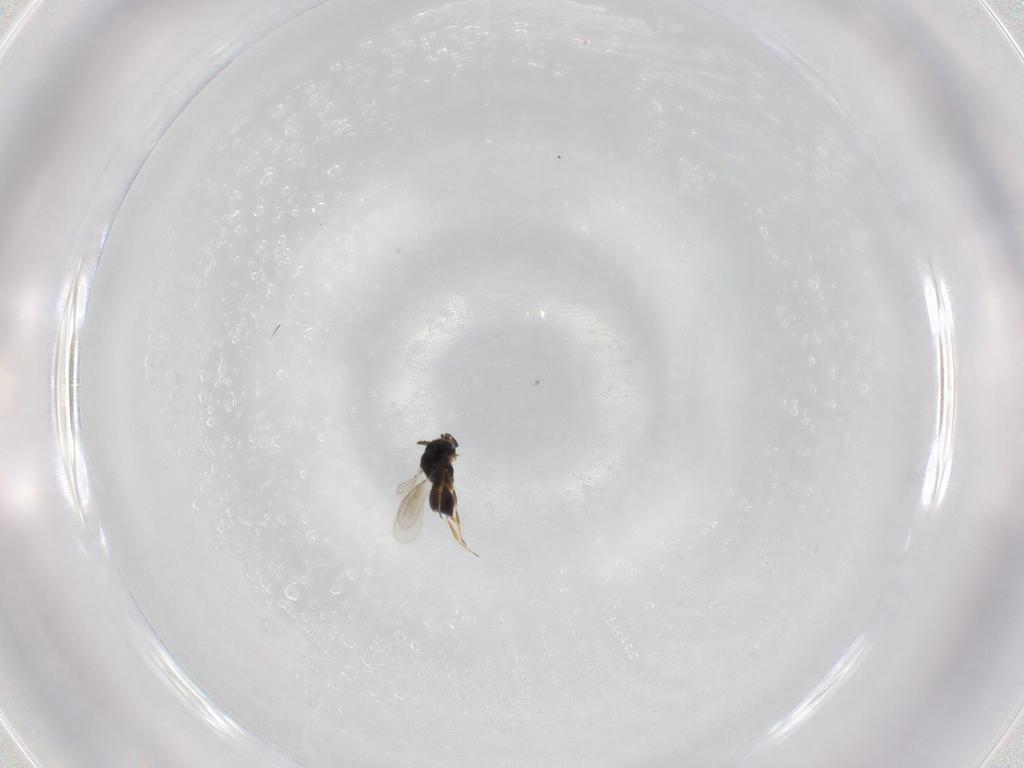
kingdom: Animalia
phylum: Arthropoda
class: Insecta
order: Hymenoptera
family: Scelionidae
